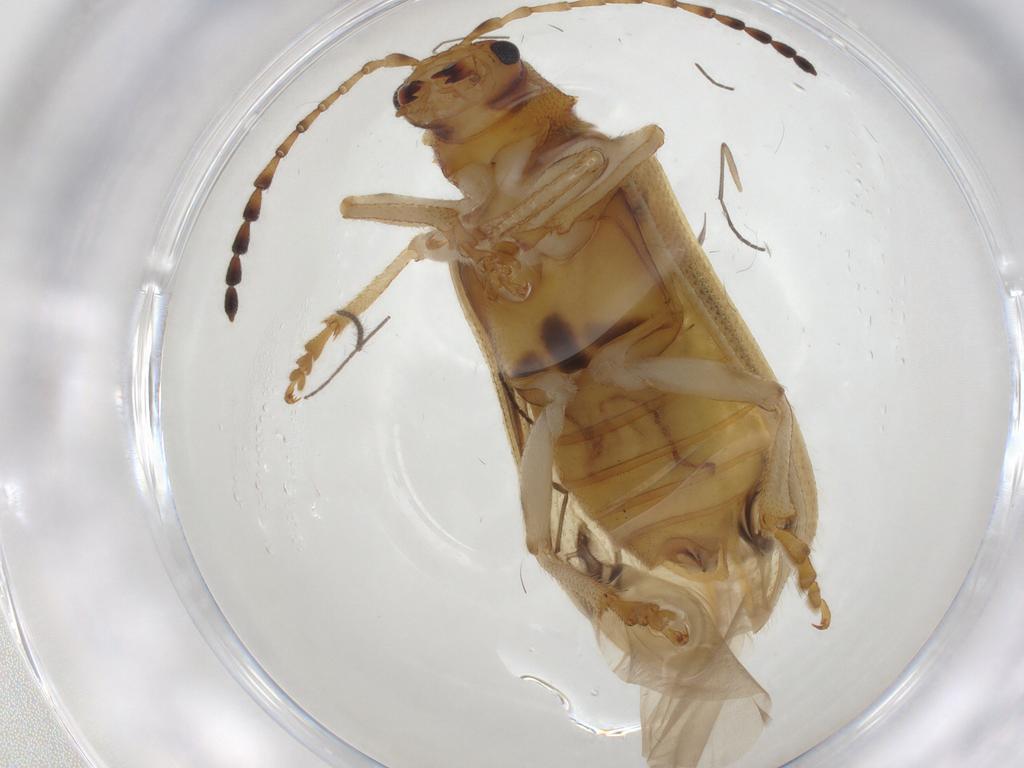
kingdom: Animalia
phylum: Arthropoda
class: Insecta
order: Coleoptera
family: Chrysomelidae
